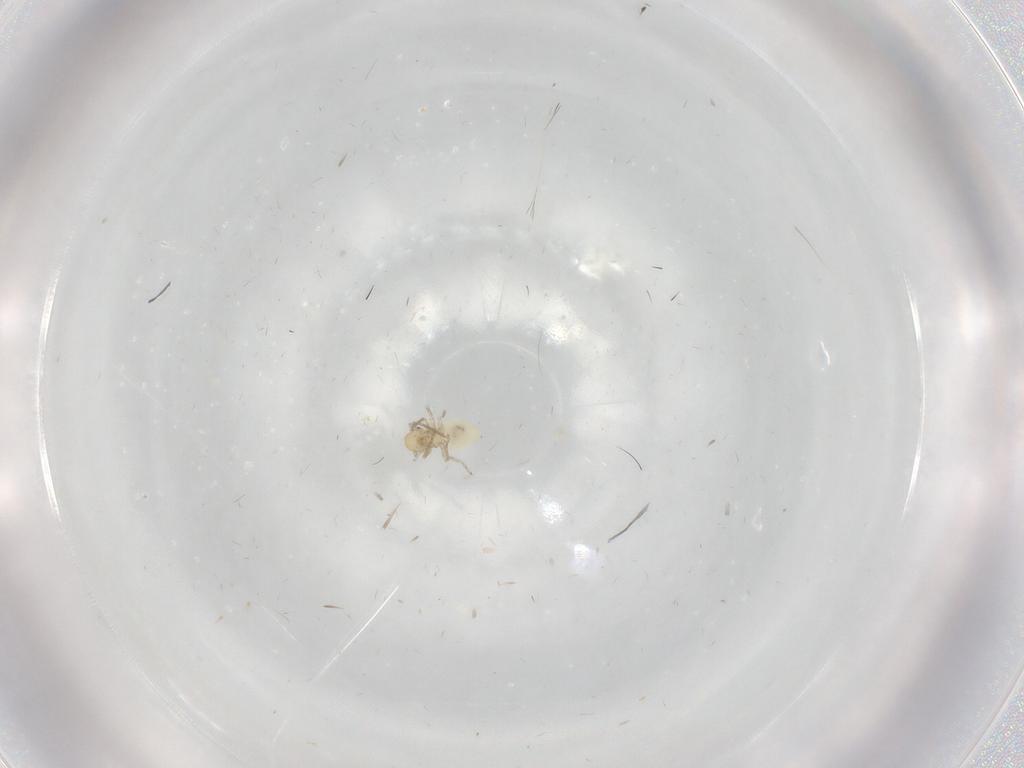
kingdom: Animalia
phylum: Arthropoda
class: Insecta
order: Psocodea
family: Caeciliusidae
